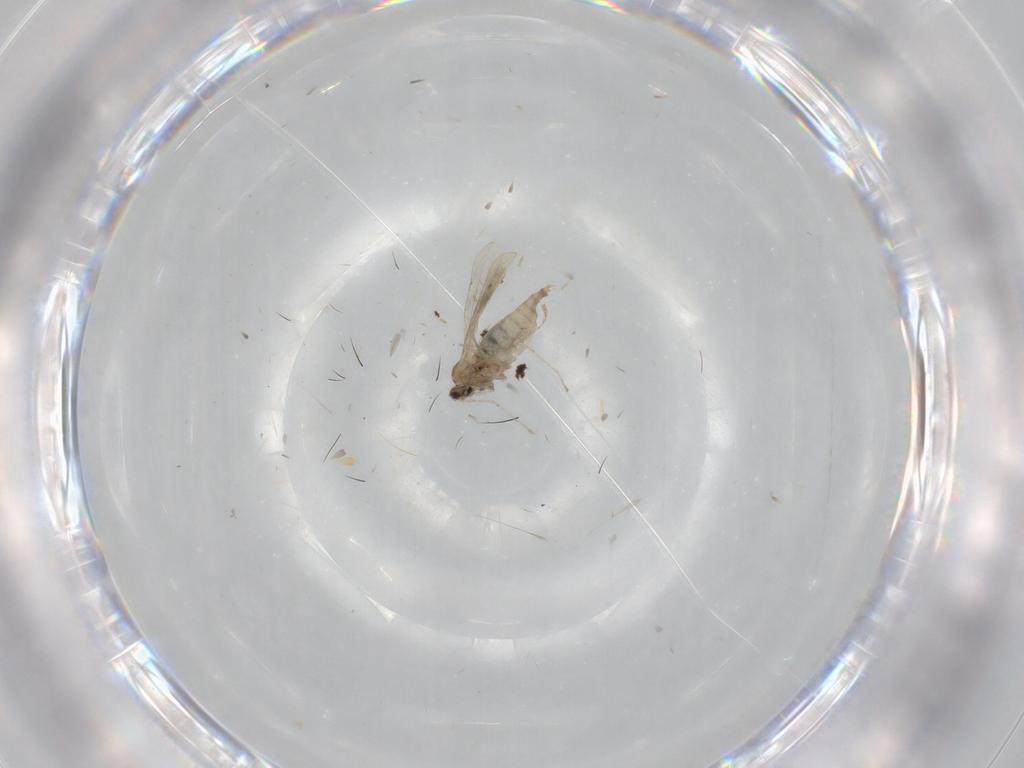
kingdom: Animalia
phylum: Arthropoda
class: Insecta
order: Diptera
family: Cecidomyiidae
